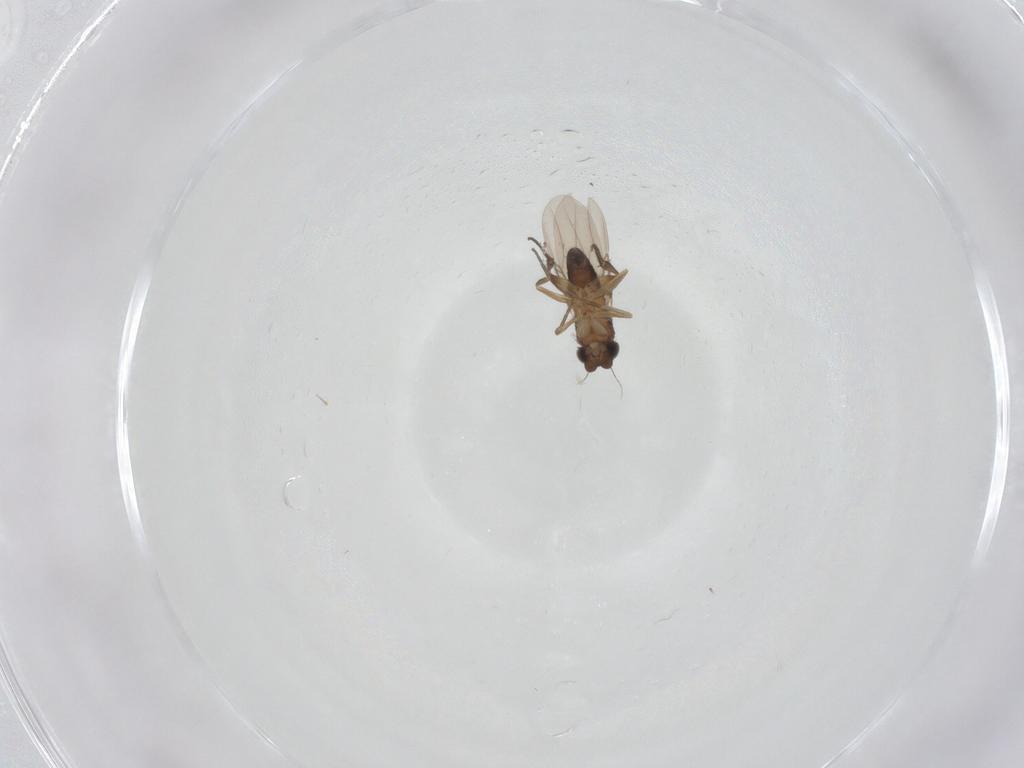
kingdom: Animalia
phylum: Arthropoda
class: Insecta
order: Diptera
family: Phoridae
